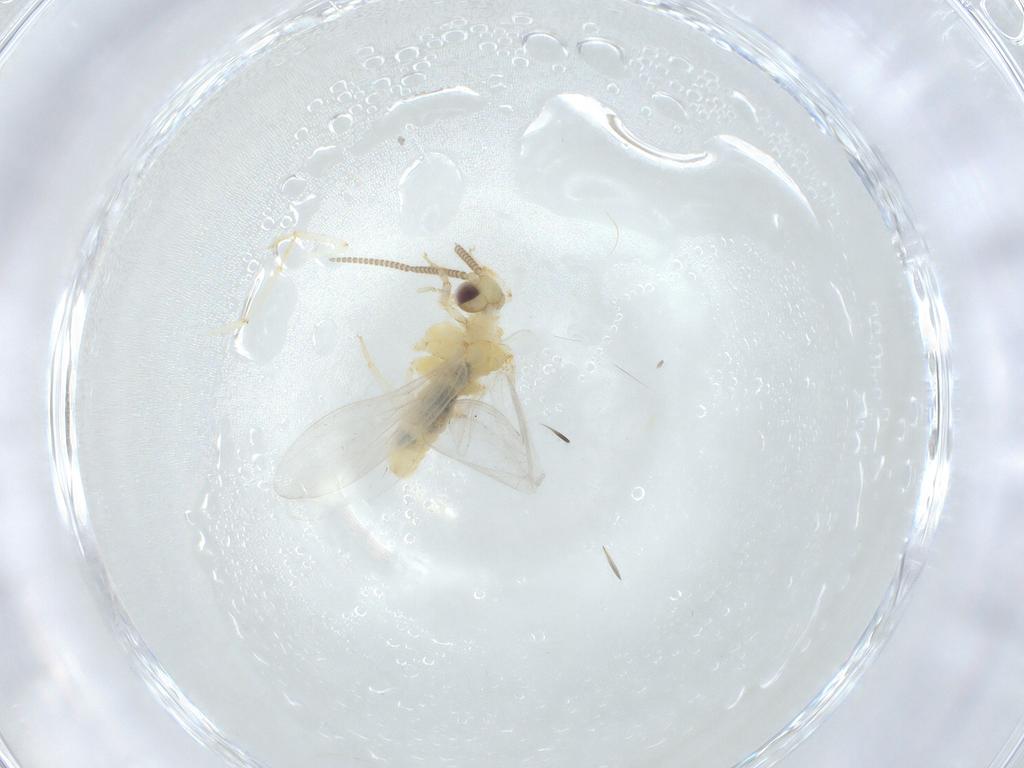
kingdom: Animalia
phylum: Arthropoda
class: Insecta
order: Neuroptera
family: Coniopterygidae
